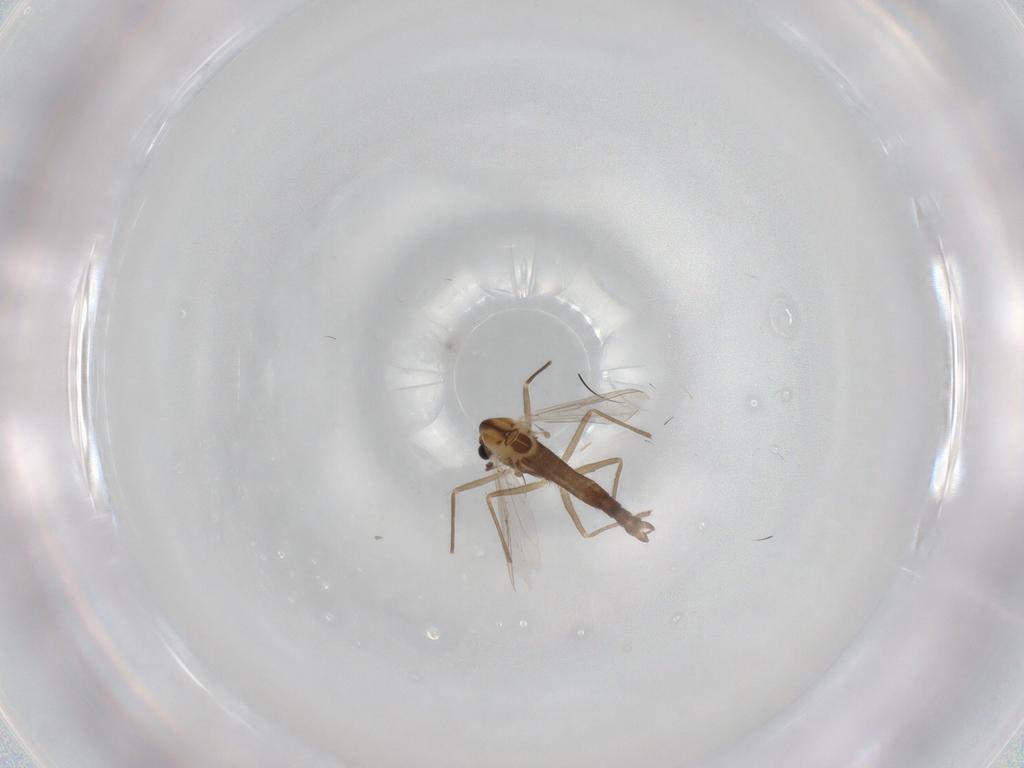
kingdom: Animalia
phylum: Arthropoda
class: Insecta
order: Diptera
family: Chironomidae
